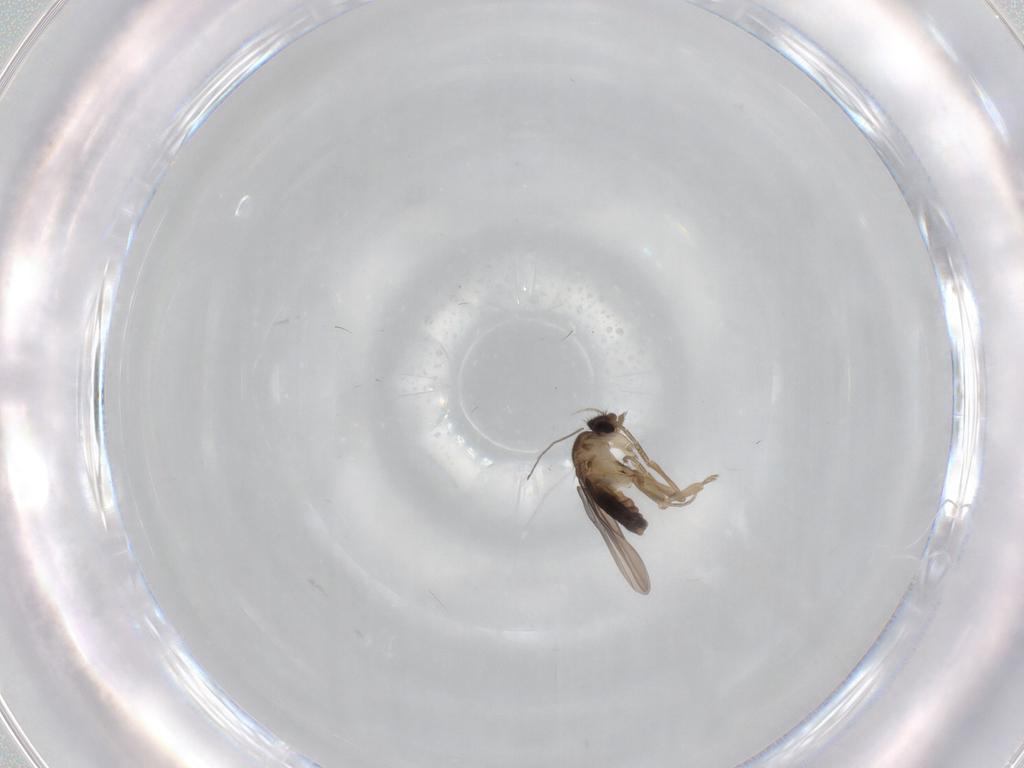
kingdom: Animalia
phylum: Arthropoda
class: Insecta
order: Diptera
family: Phoridae
